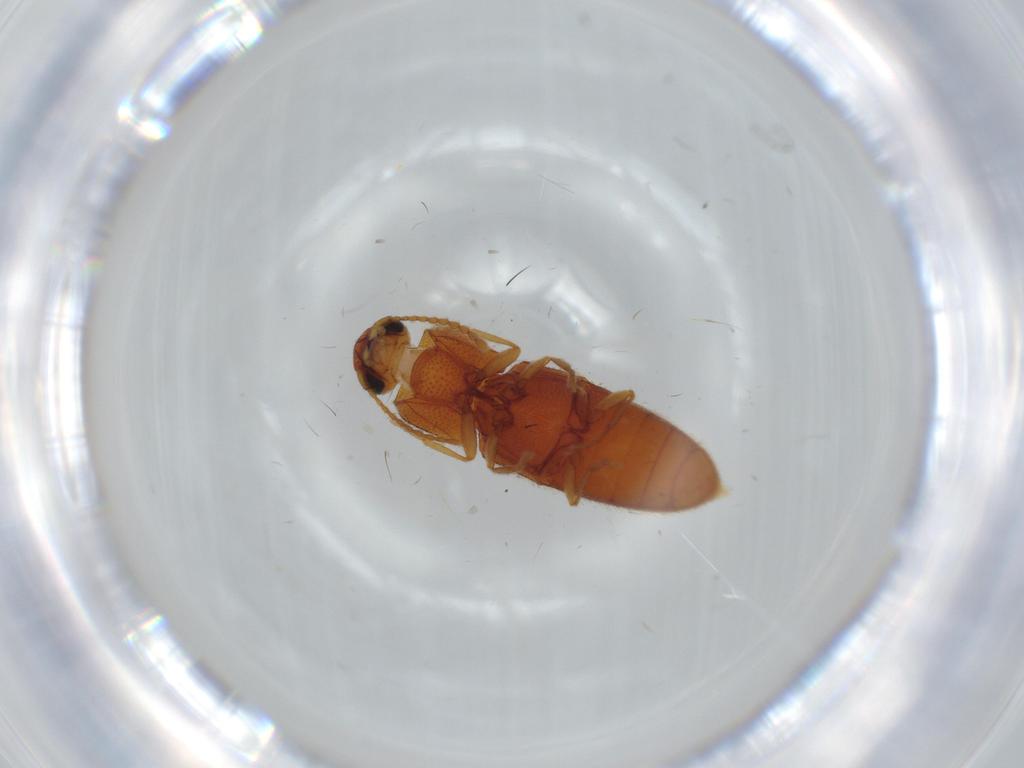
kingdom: Animalia
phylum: Arthropoda
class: Insecta
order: Coleoptera
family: Elateridae
